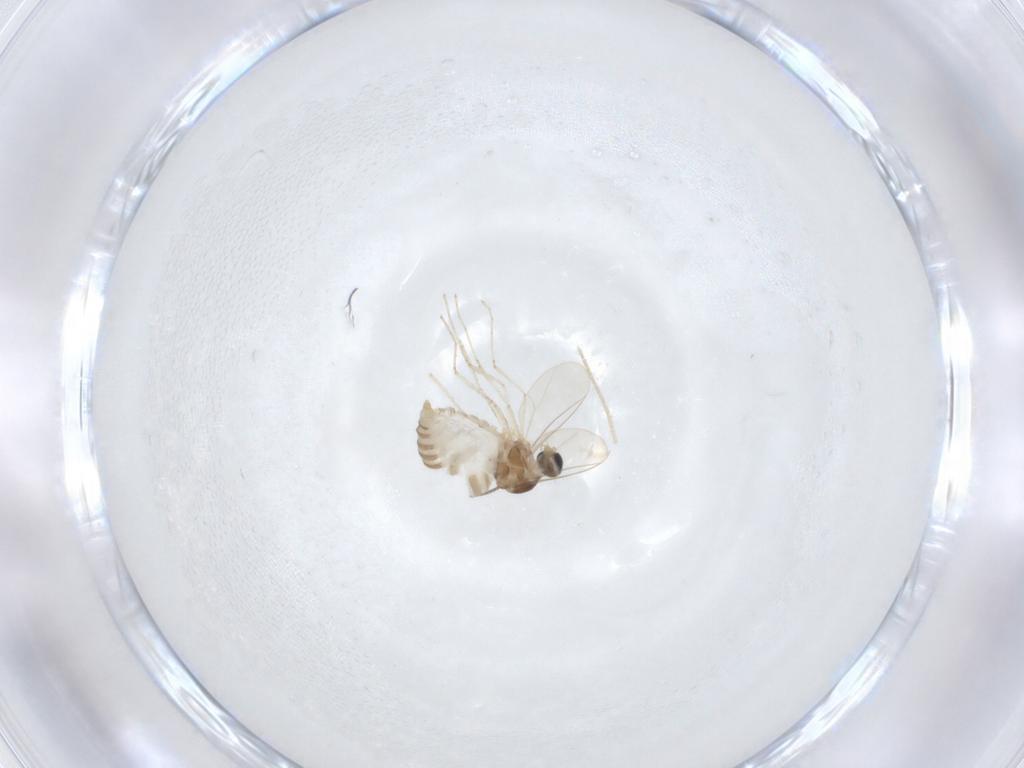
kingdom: Animalia
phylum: Arthropoda
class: Insecta
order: Diptera
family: Cecidomyiidae
